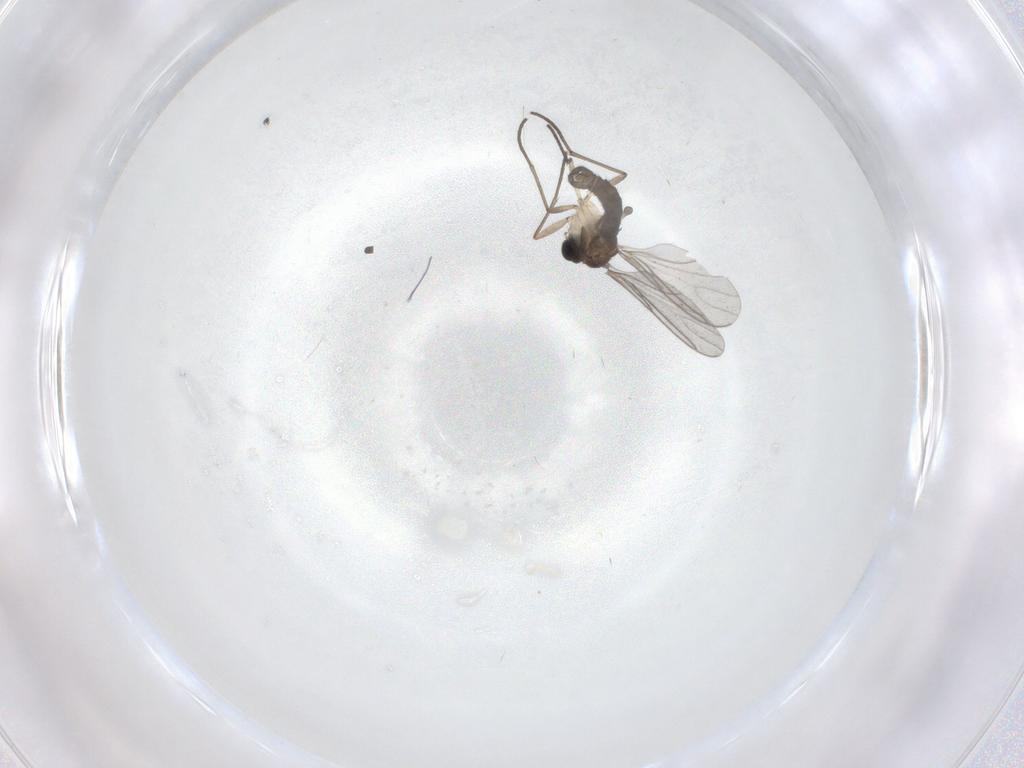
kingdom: Animalia
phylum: Arthropoda
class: Insecta
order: Diptera
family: Sciaridae
